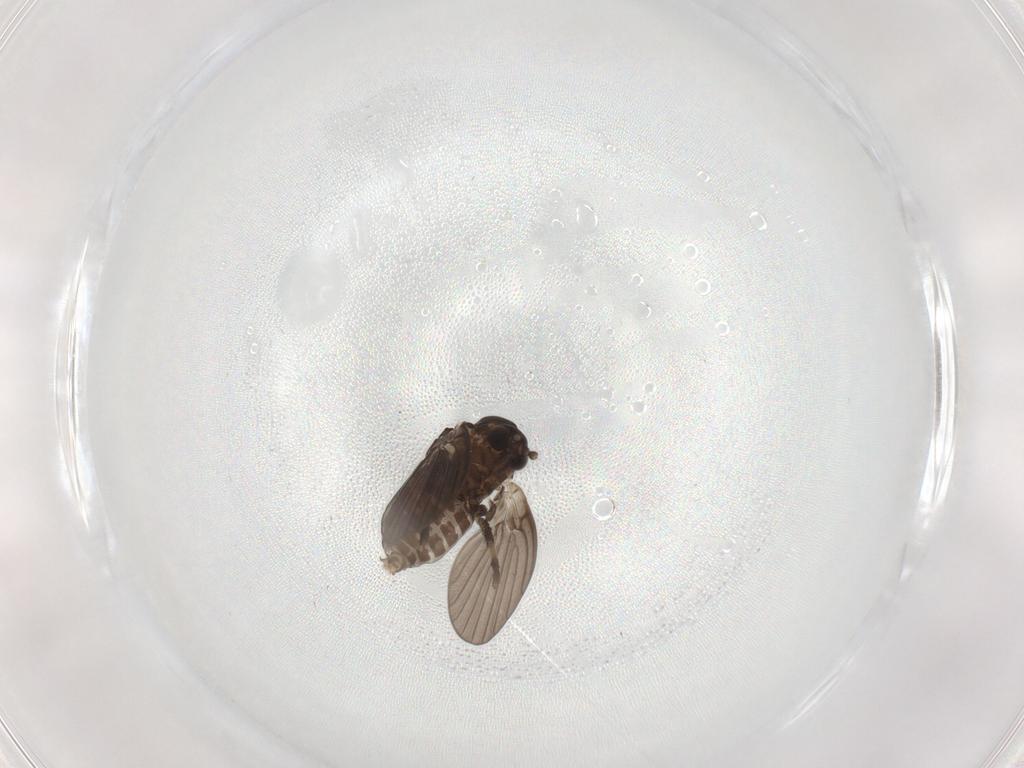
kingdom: Animalia
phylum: Arthropoda
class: Insecta
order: Diptera
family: Psychodidae
